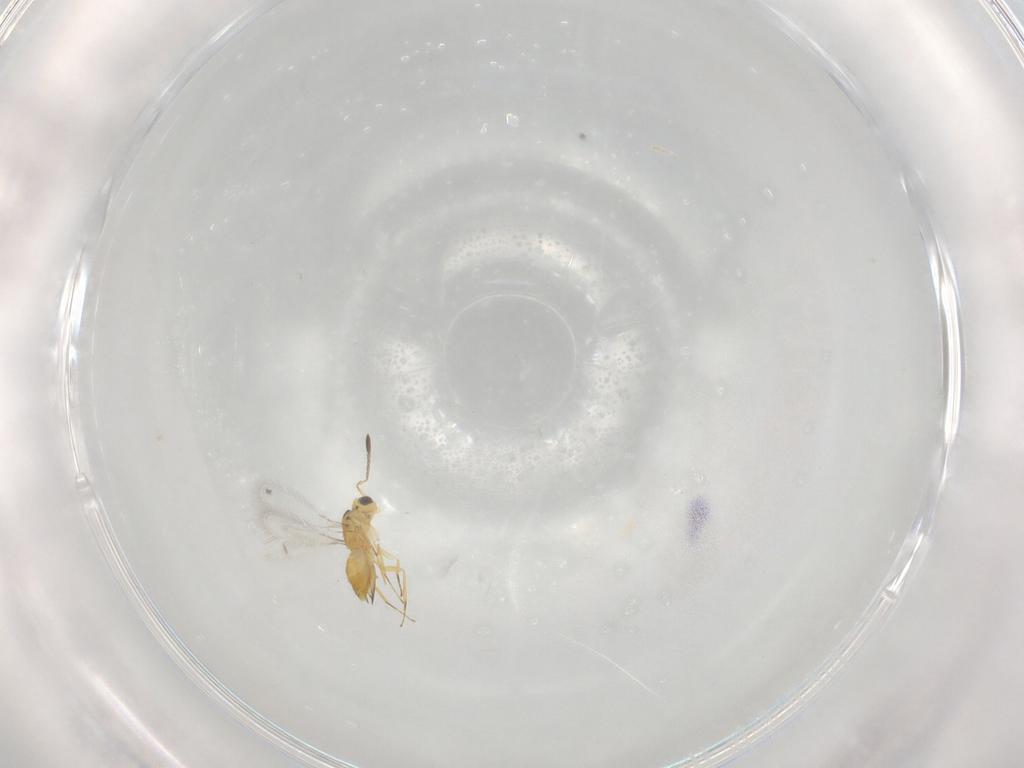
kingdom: Animalia
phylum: Arthropoda
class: Insecta
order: Hymenoptera
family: Mymaridae
